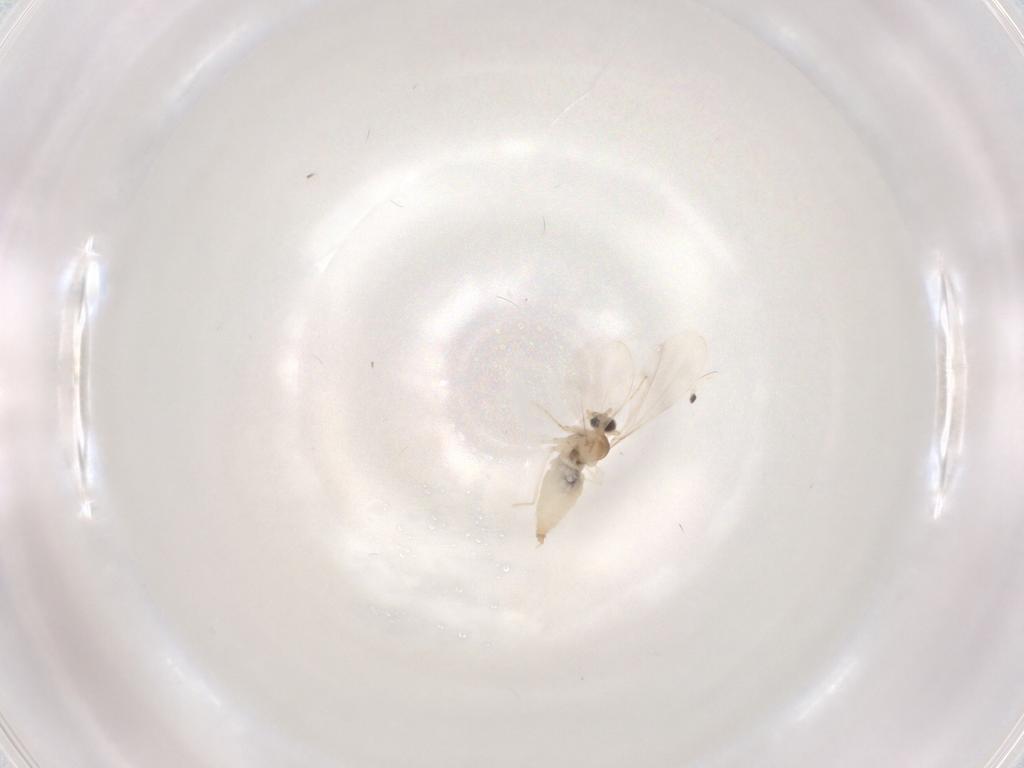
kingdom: Animalia
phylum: Arthropoda
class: Insecta
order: Diptera
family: Cecidomyiidae
